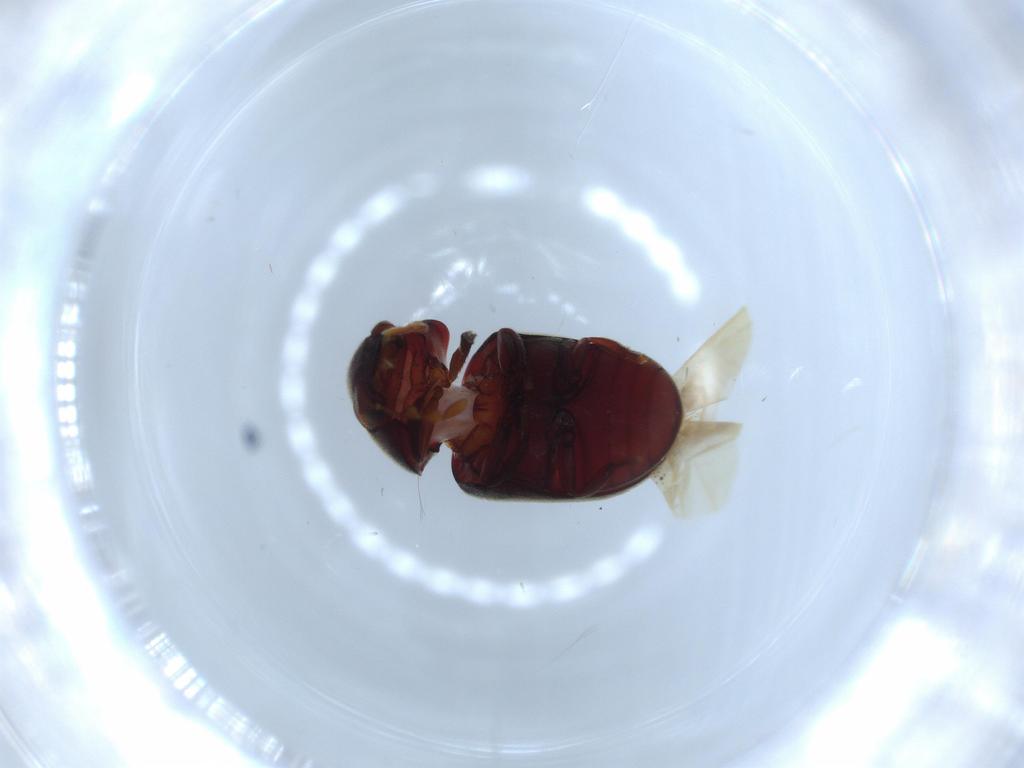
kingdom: Animalia
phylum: Arthropoda
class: Insecta
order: Coleoptera
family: Ptinidae
